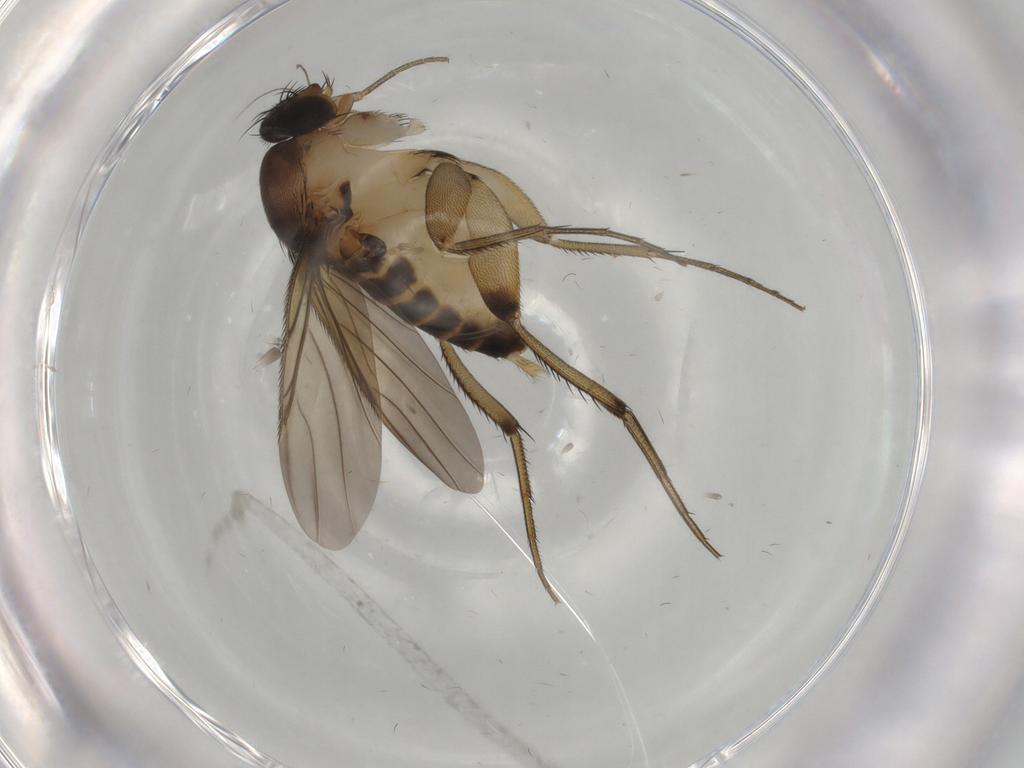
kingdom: Animalia
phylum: Arthropoda
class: Insecta
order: Diptera
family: Phoridae
